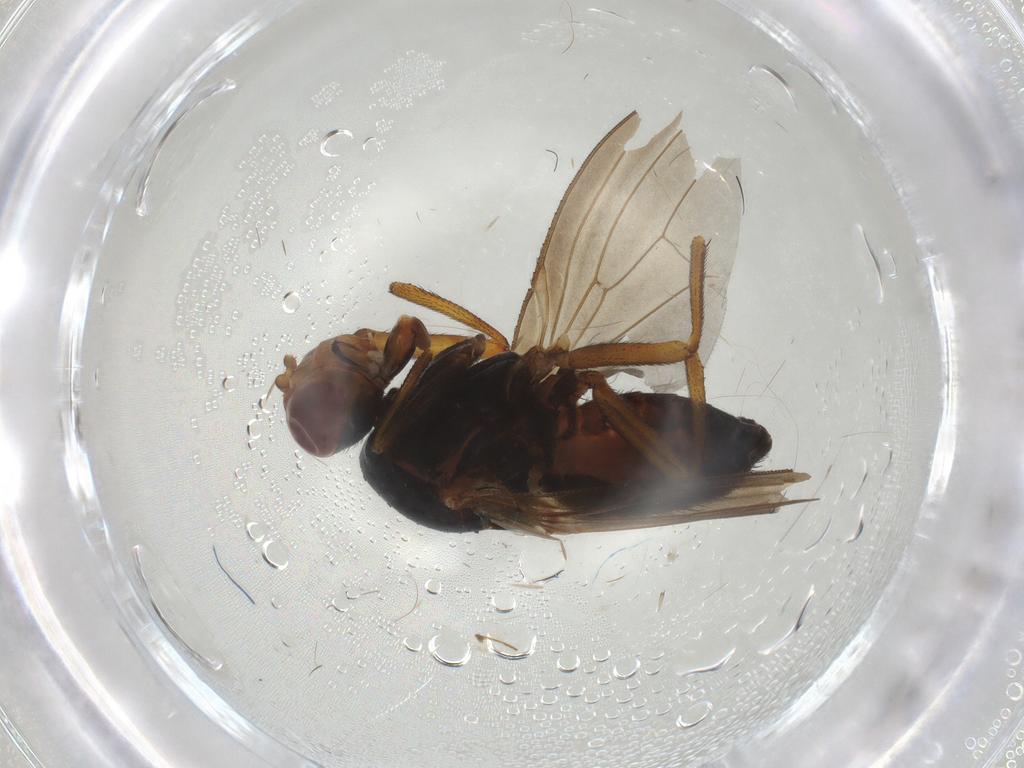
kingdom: Animalia
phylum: Arthropoda
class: Insecta
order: Diptera
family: Heleomyzidae
